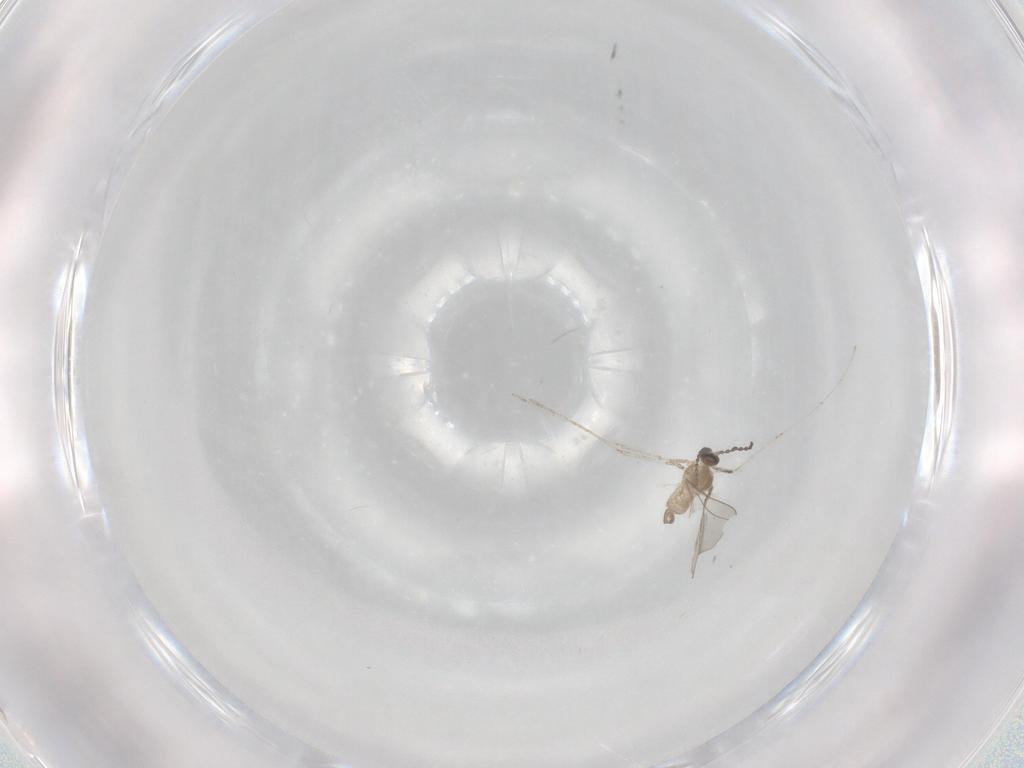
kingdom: Animalia
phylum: Arthropoda
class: Insecta
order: Diptera
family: Cecidomyiidae
